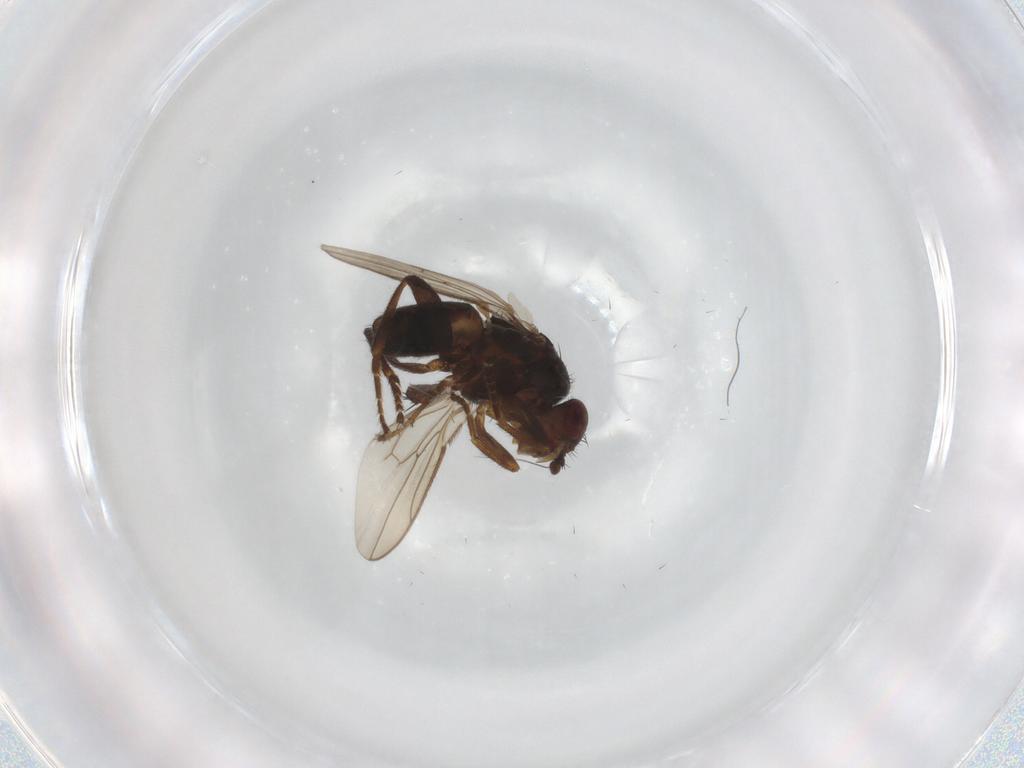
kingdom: Animalia
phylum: Arthropoda
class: Insecta
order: Diptera
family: Sphaeroceridae
